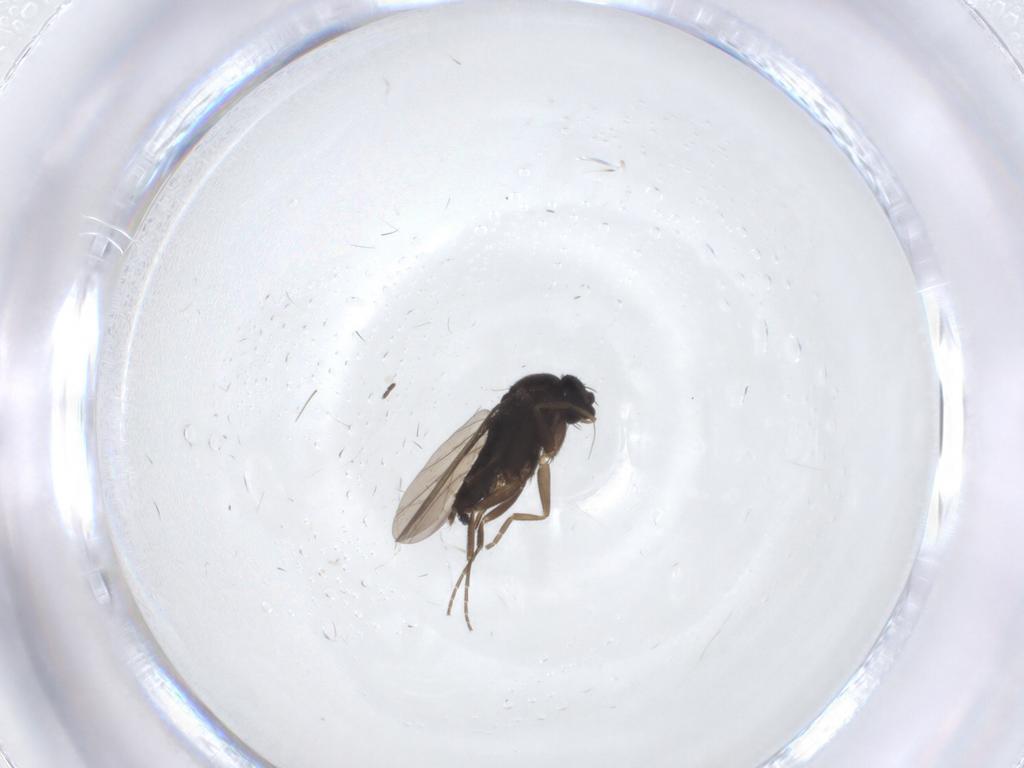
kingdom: Animalia
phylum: Arthropoda
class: Insecta
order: Diptera
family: Phoridae
